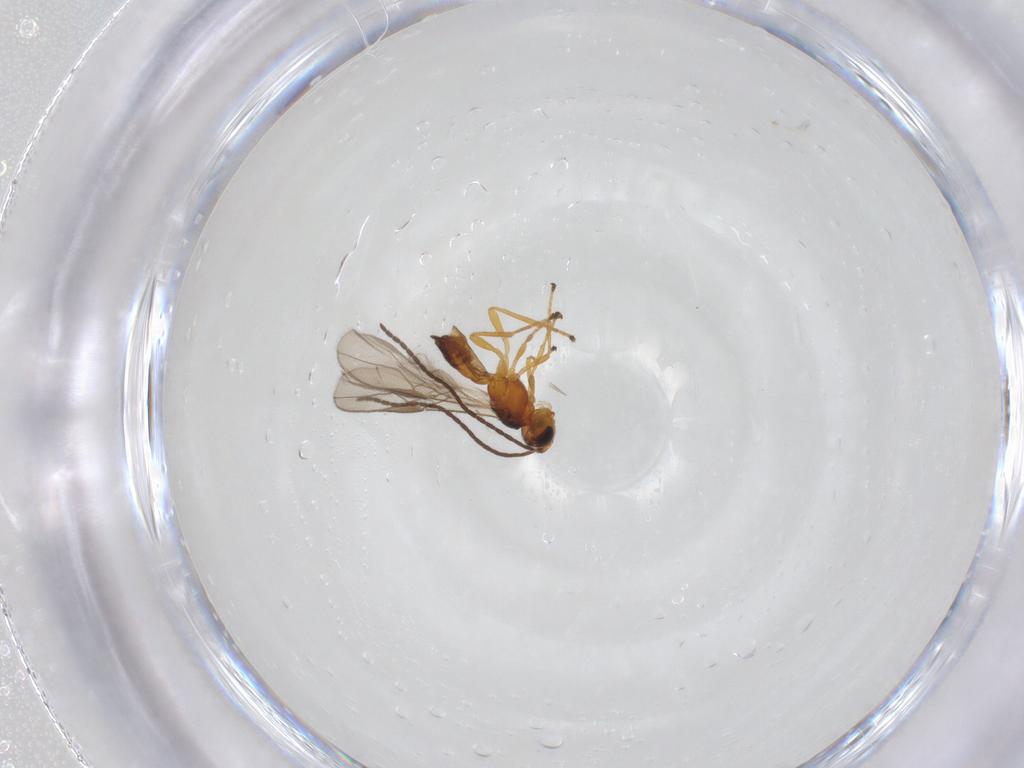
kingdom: Animalia
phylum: Arthropoda
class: Insecta
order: Hymenoptera
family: Braconidae
